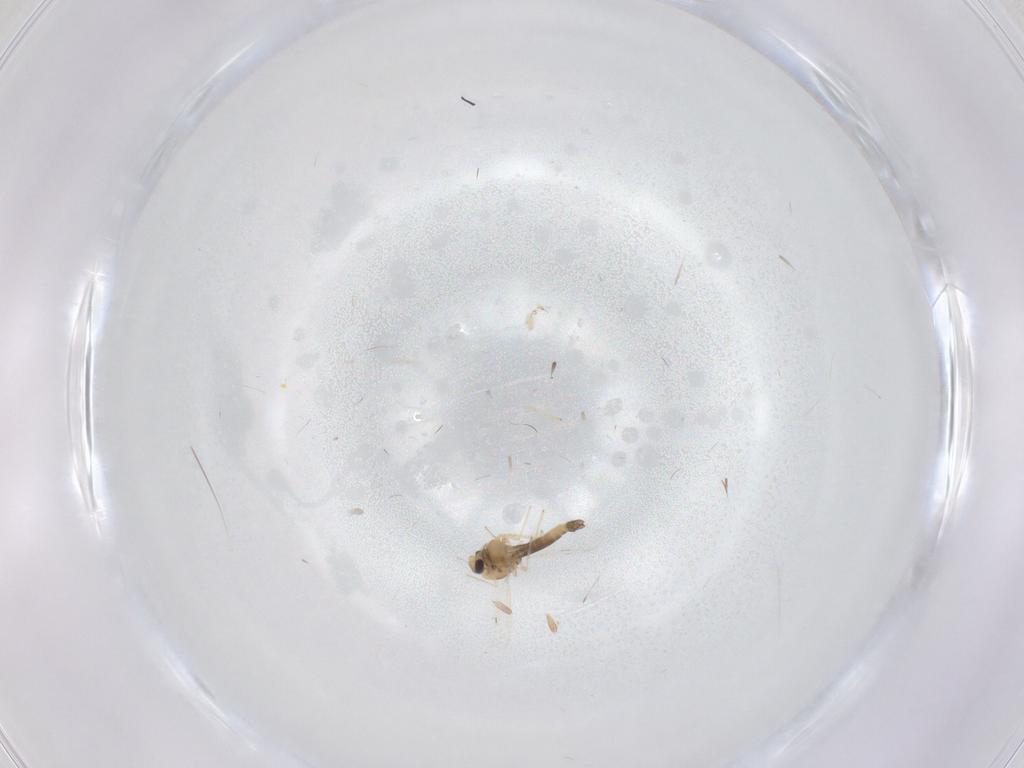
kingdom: Animalia
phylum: Arthropoda
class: Insecta
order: Diptera
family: Chironomidae
